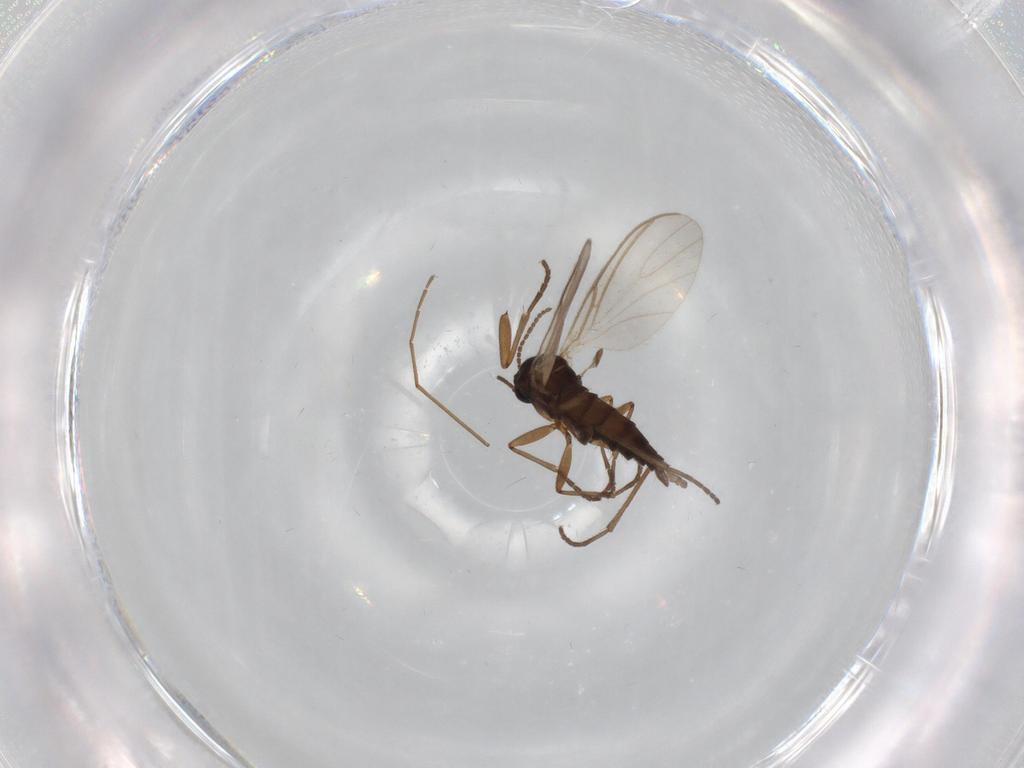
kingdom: Animalia
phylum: Arthropoda
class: Insecta
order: Diptera
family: Sciaridae
